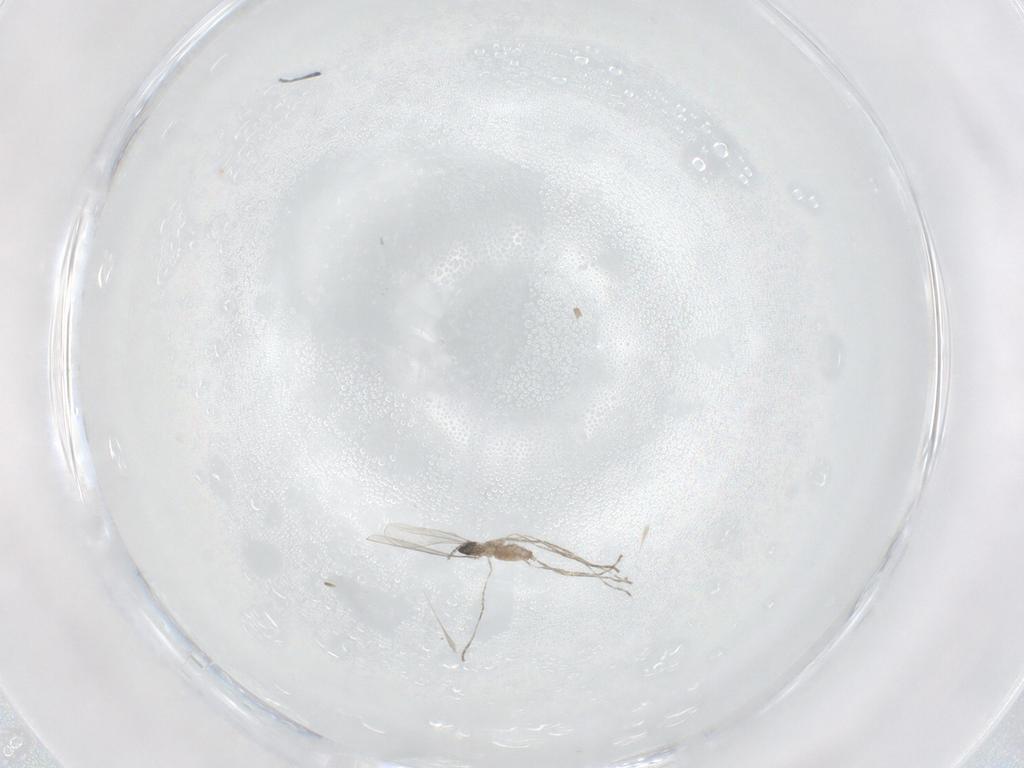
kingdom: Animalia
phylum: Arthropoda
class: Insecta
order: Diptera
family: Cecidomyiidae
